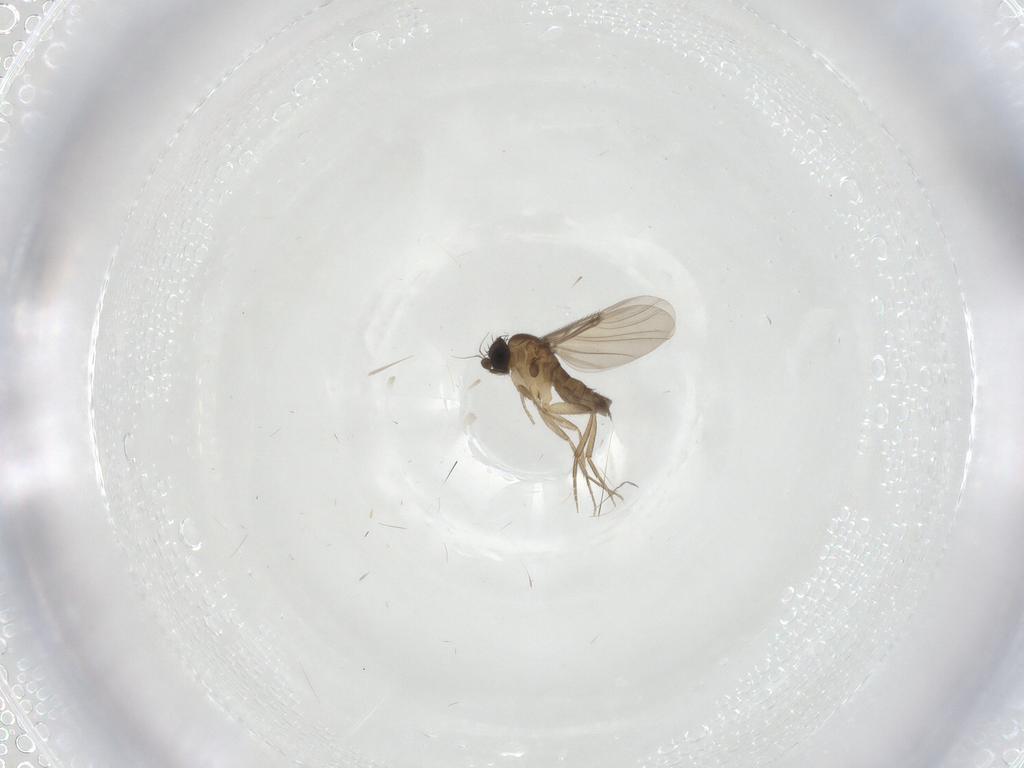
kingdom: Animalia
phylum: Arthropoda
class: Insecta
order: Diptera
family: Phoridae
